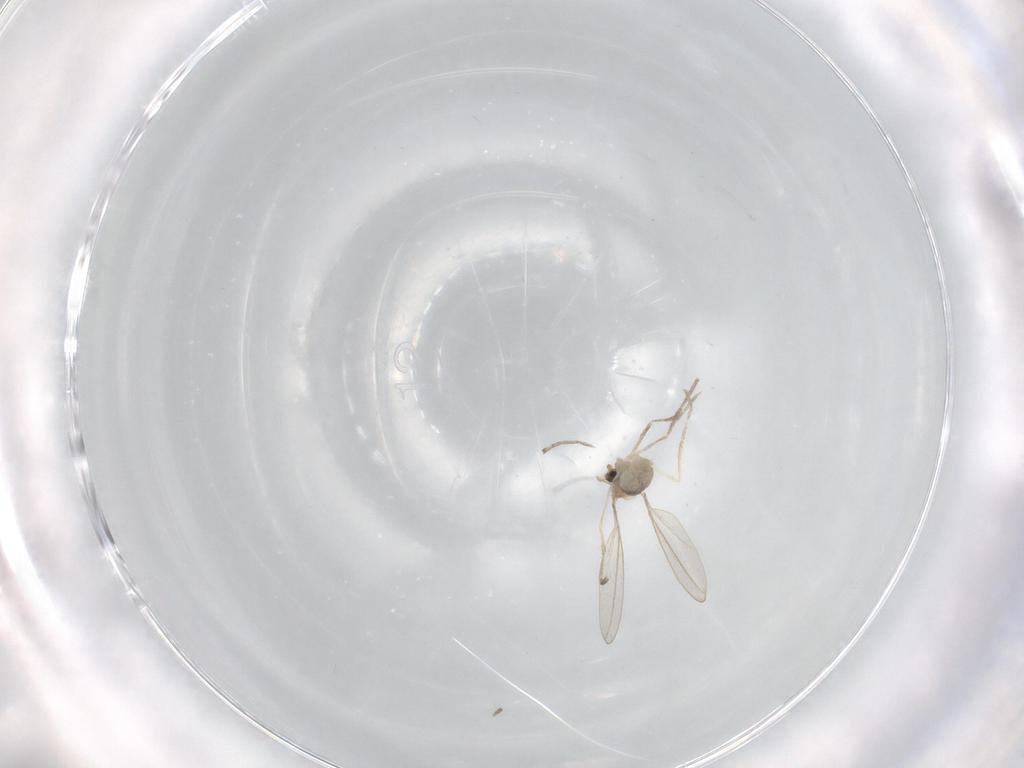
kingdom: Animalia
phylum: Arthropoda
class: Insecta
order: Diptera
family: Cecidomyiidae
